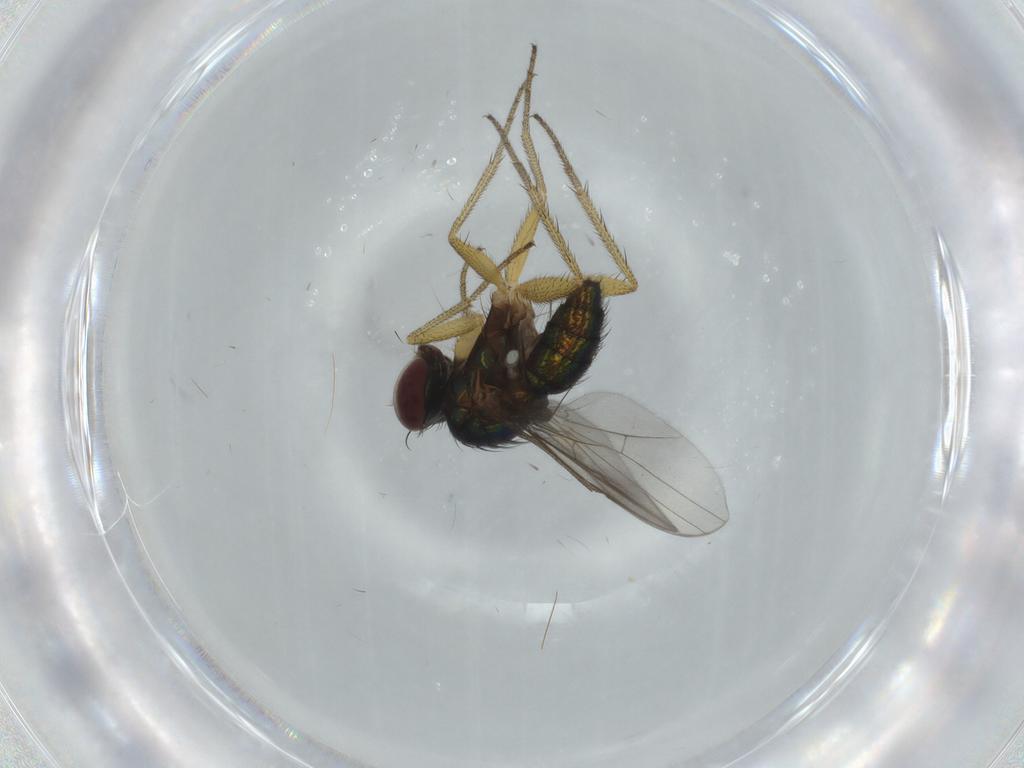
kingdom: Animalia
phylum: Arthropoda
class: Insecta
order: Diptera
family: Dolichopodidae
